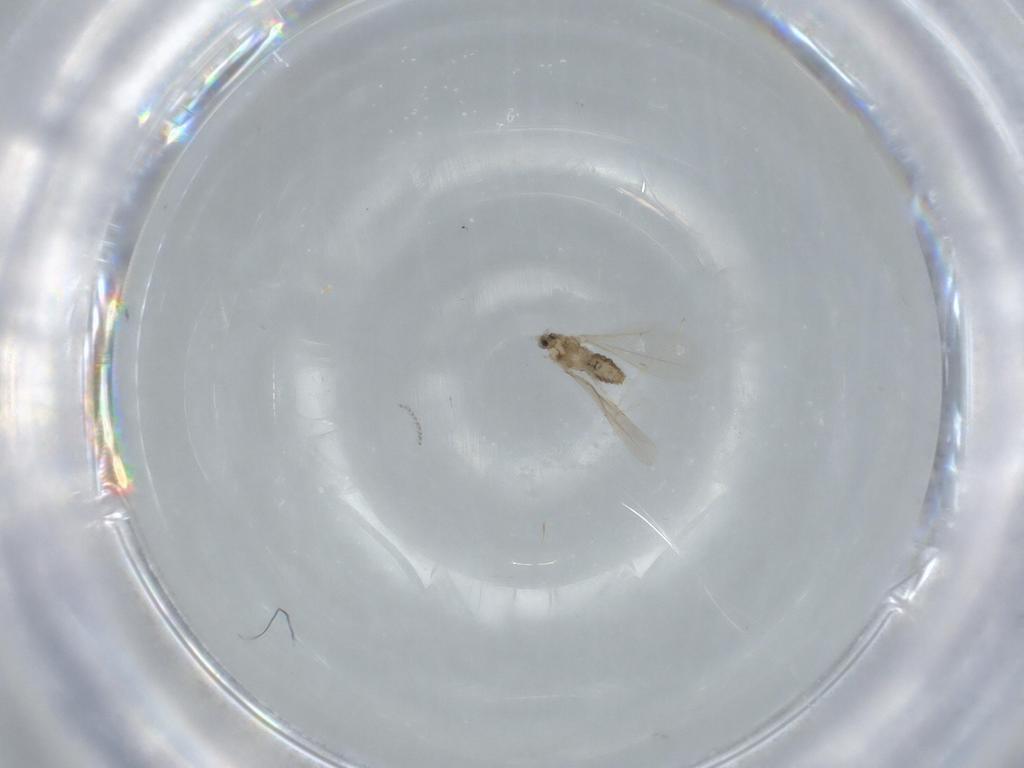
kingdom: Animalia
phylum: Arthropoda
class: Insecta
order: Diptera
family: Cecidomyiidae
